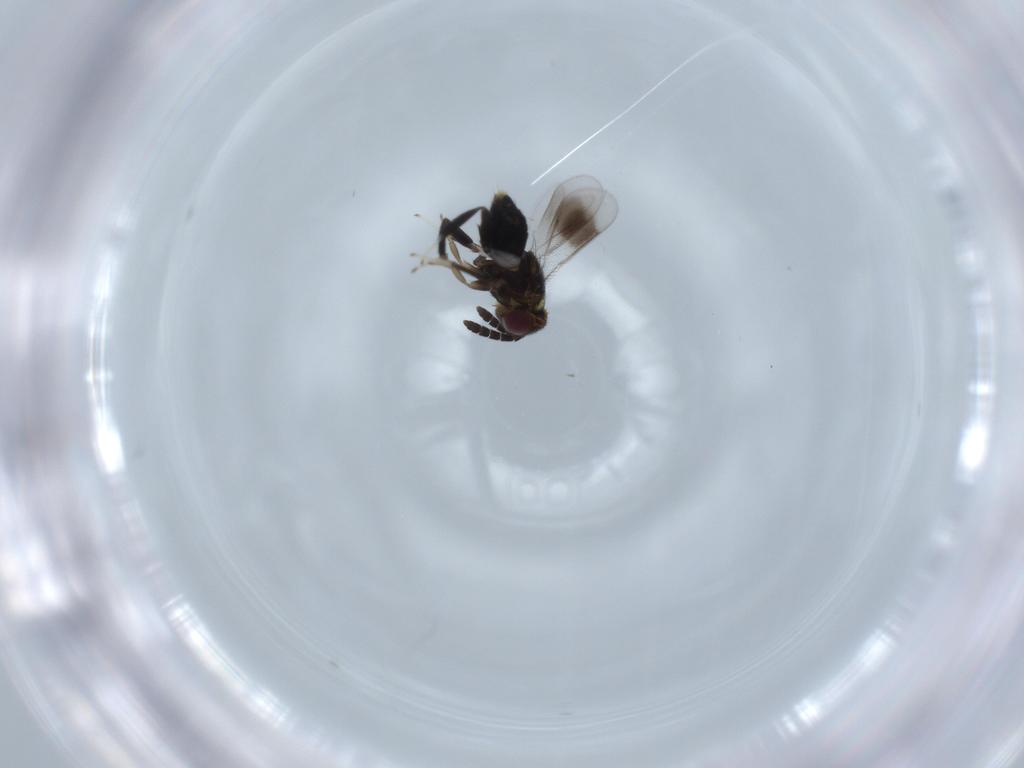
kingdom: Animalia
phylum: Arthropoda
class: Insecta
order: Hymenoptera
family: Aphelinidae
